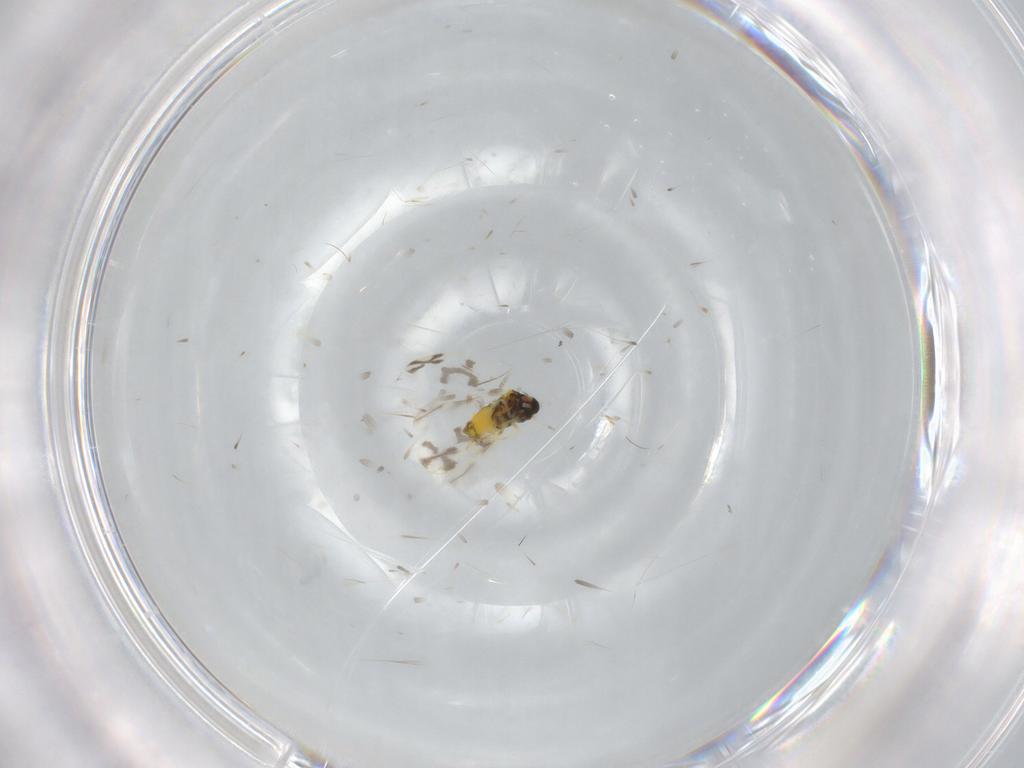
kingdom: Animalia
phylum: Arthropoda
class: Insecta
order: Hemiptera
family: Aleyrodidae
